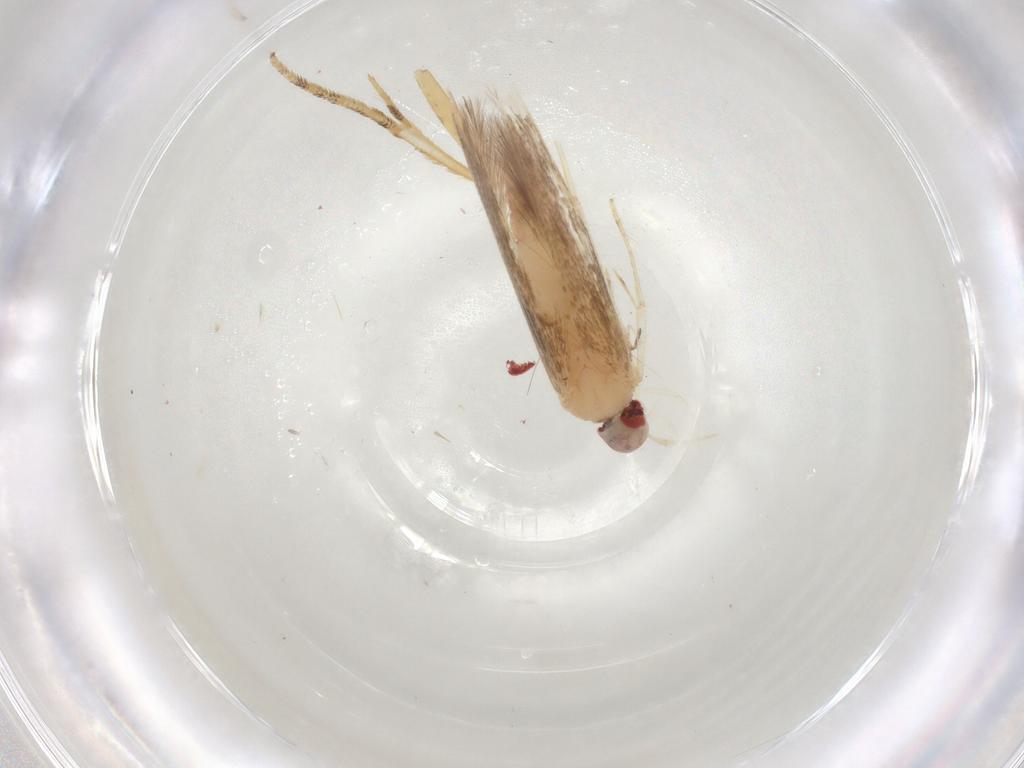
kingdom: Animalia
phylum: Arthropoda
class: Insecta
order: Lepidoptera
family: Cosmopterigidae
